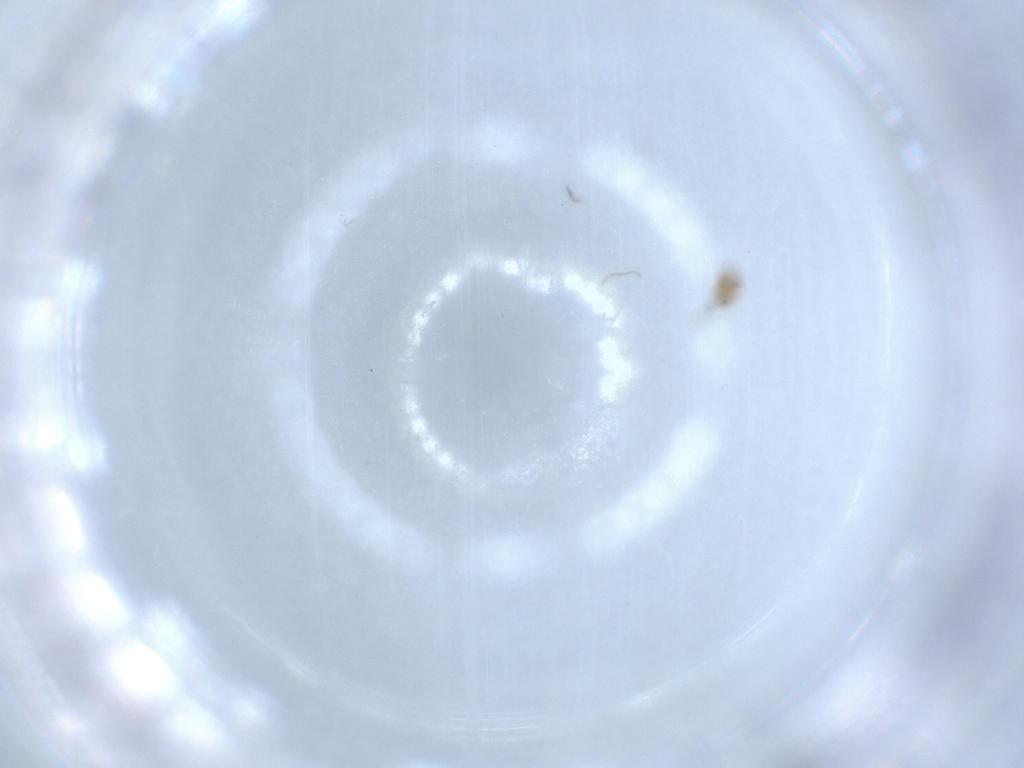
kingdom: Animalia
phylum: Arthropoda
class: Insecta
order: Hymenoptera
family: Trichogrammatidae
